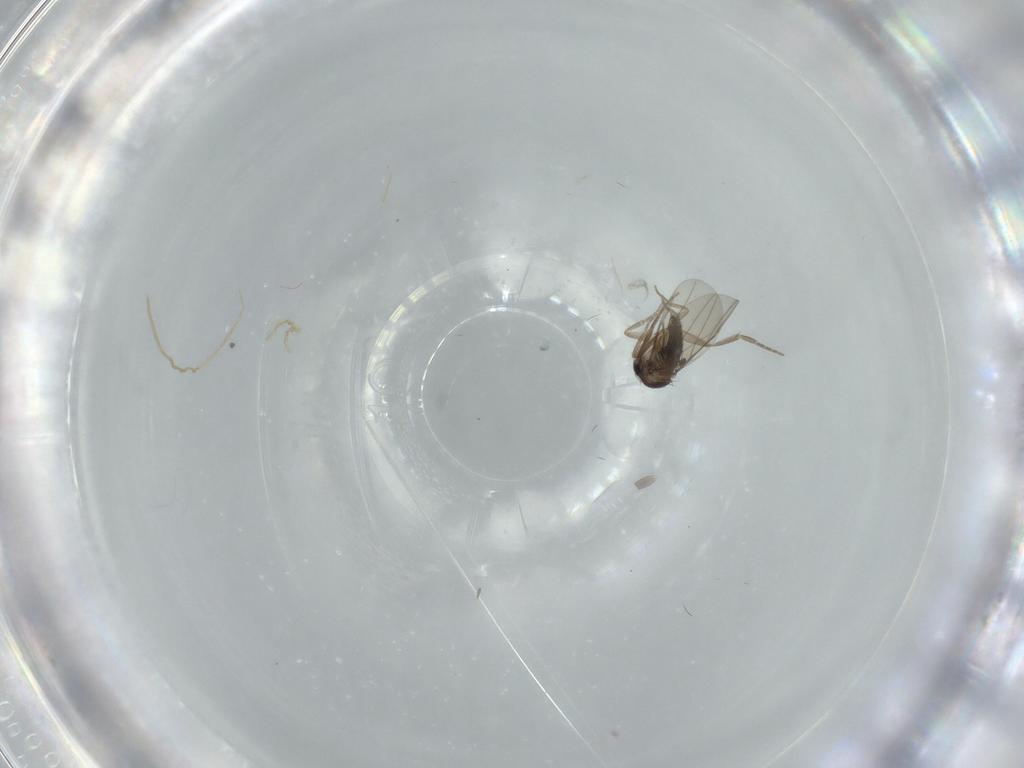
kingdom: Animalia
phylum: Arthropoda
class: Insecta
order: Diptera
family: Phoridae
